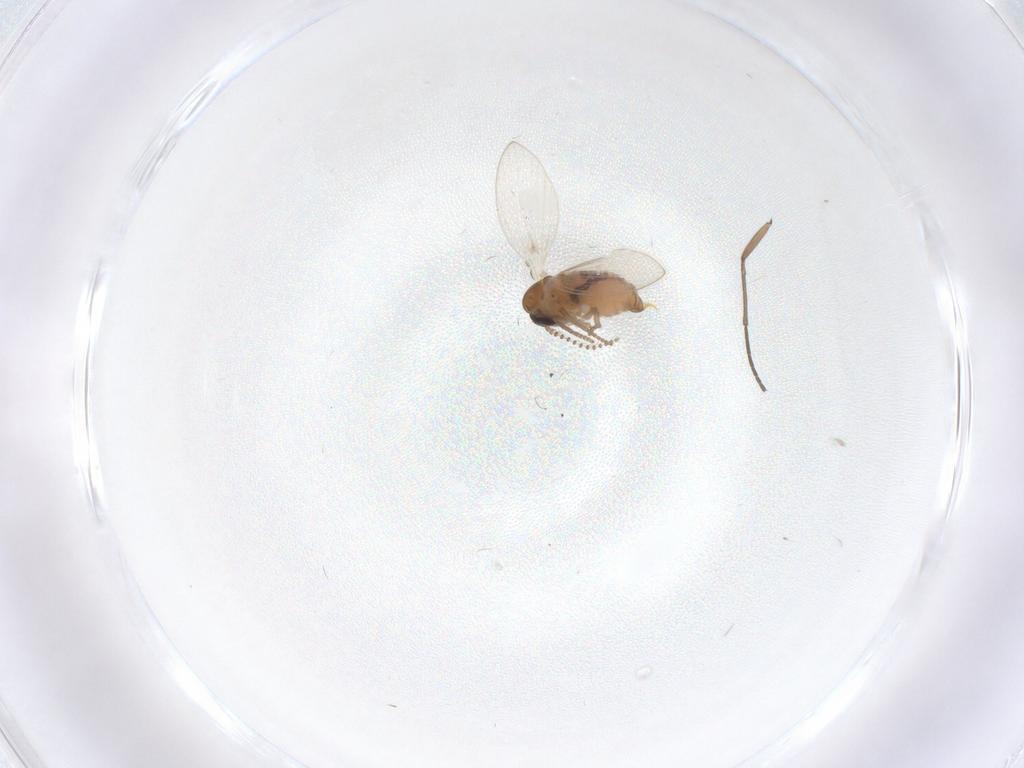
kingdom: Animalia
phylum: Arthropoda
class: Insecta
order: Diptera
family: Psychodidae
